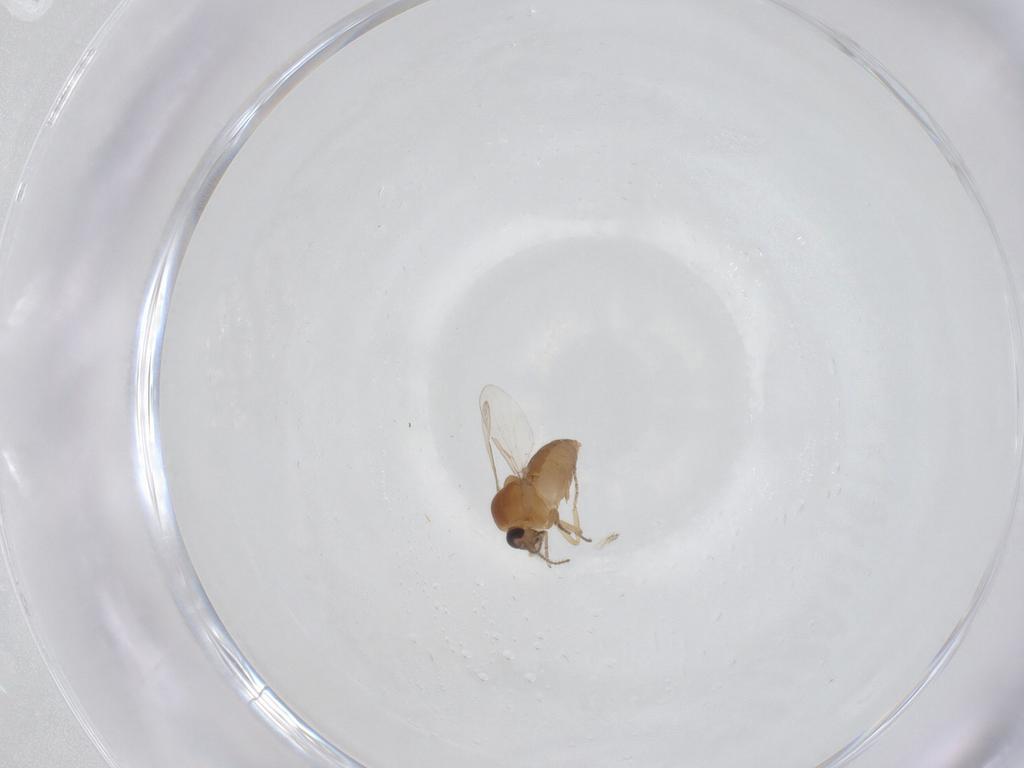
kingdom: Animalia
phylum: Arthropoda
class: Insecta
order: Diptera
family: Ceratopogonidae
